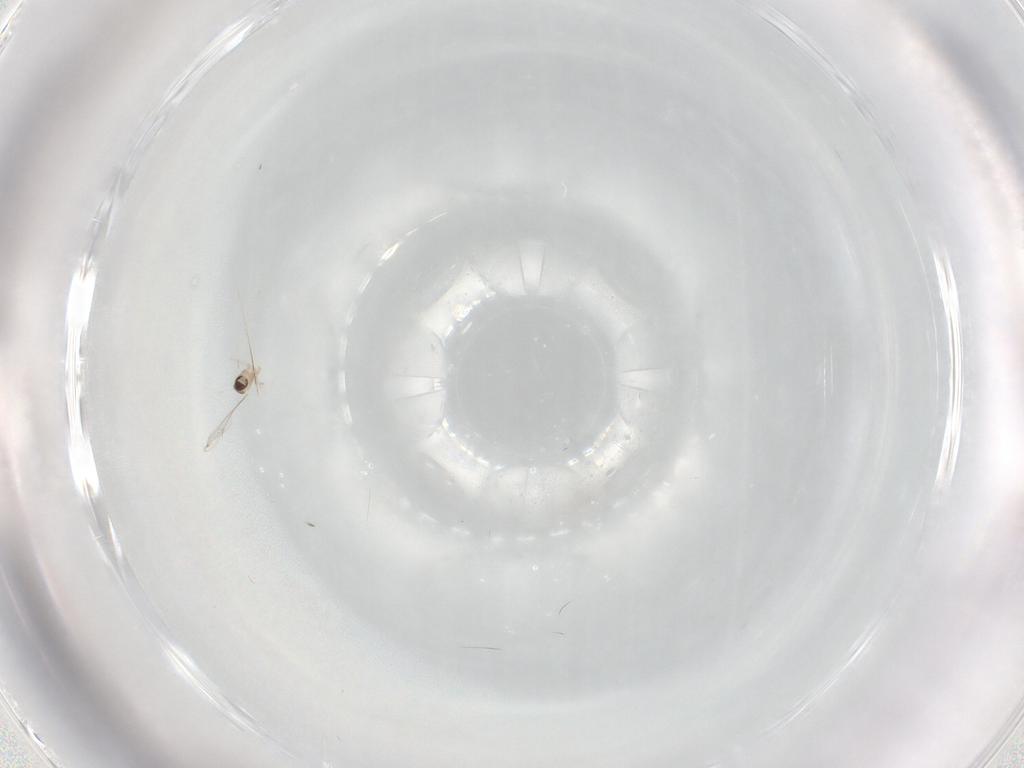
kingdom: Animalia
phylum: Arthropoda
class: Insecta
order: Diptera
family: Cecidomyiidae
